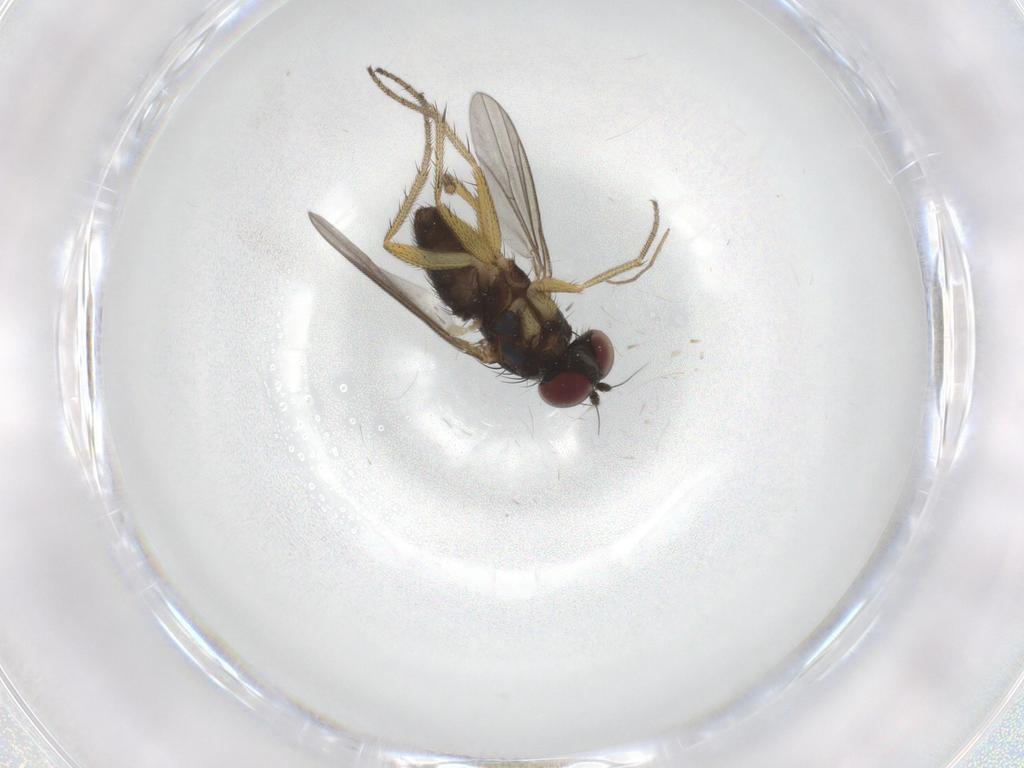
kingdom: Animalia
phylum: Arthropoda
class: Insecta
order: Diptera
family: Dolichopodidae
